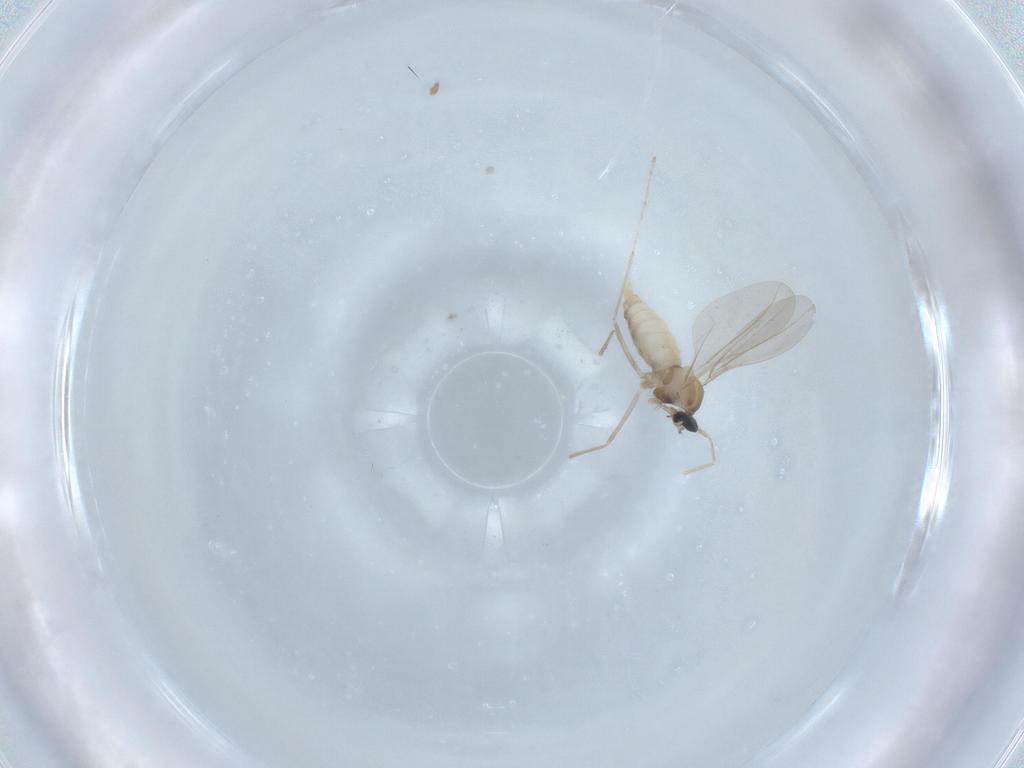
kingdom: Animalia
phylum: Arthropoda
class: Insecta
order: Diptera
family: Cecidomyiidae
